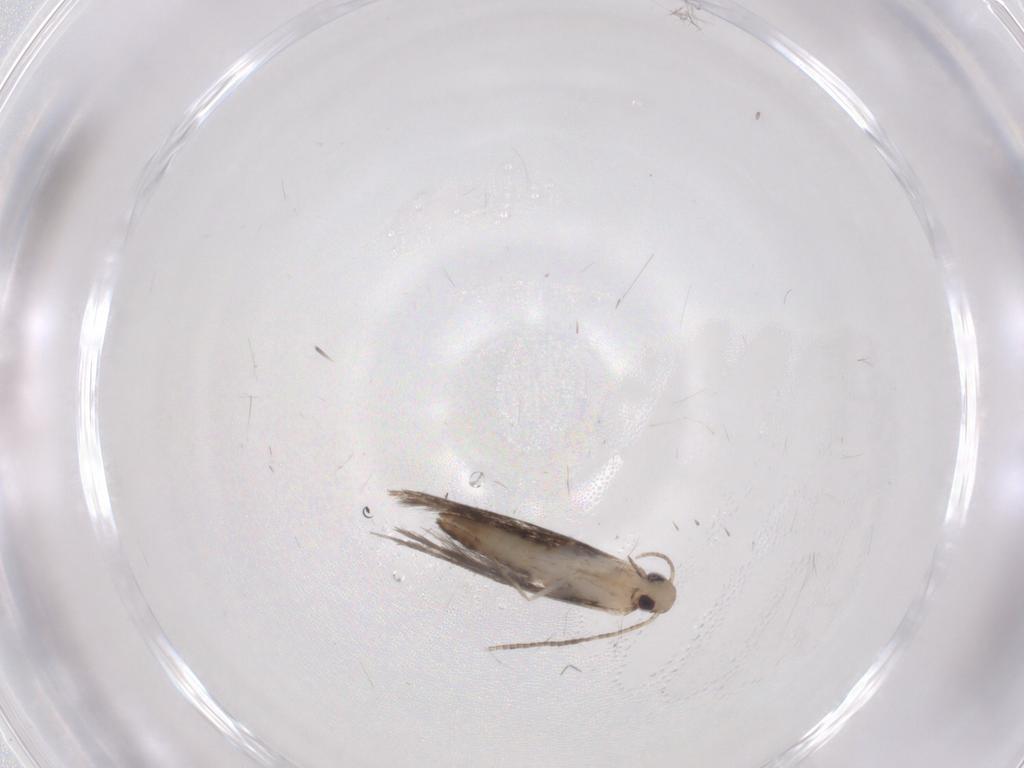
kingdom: Animalia
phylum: Arthropoda
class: Insecta
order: Lepidoptera
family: Gracillariidae
